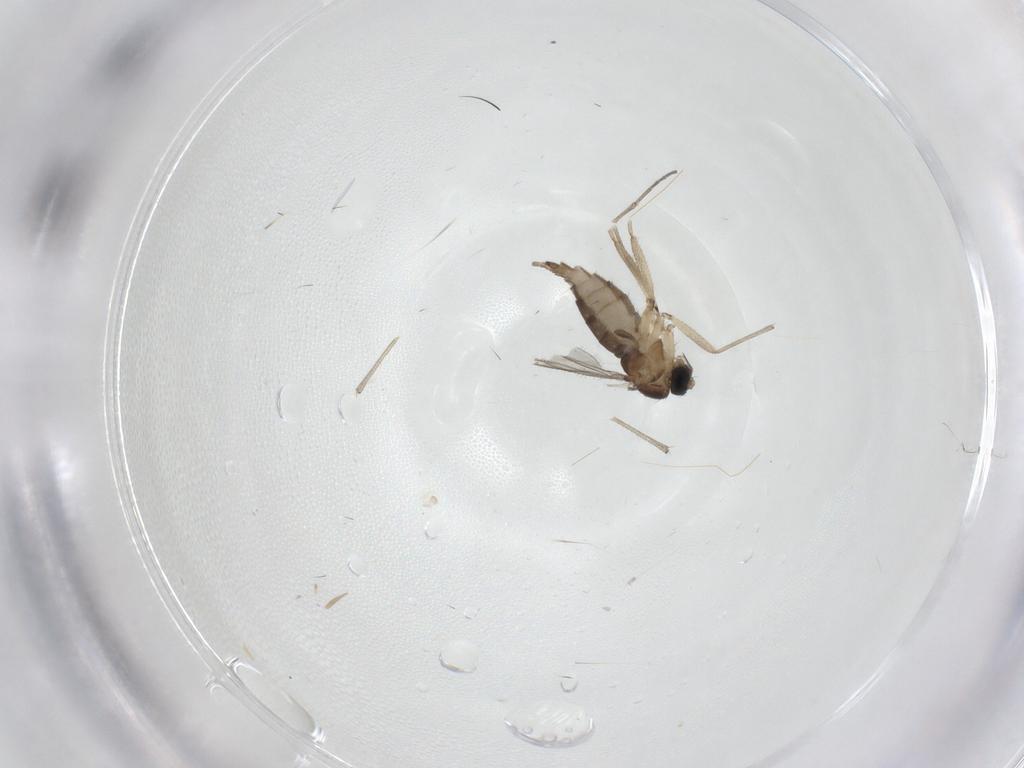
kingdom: Animalia
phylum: Arthropoda
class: Insecta
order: Diptera
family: Sciaridae
